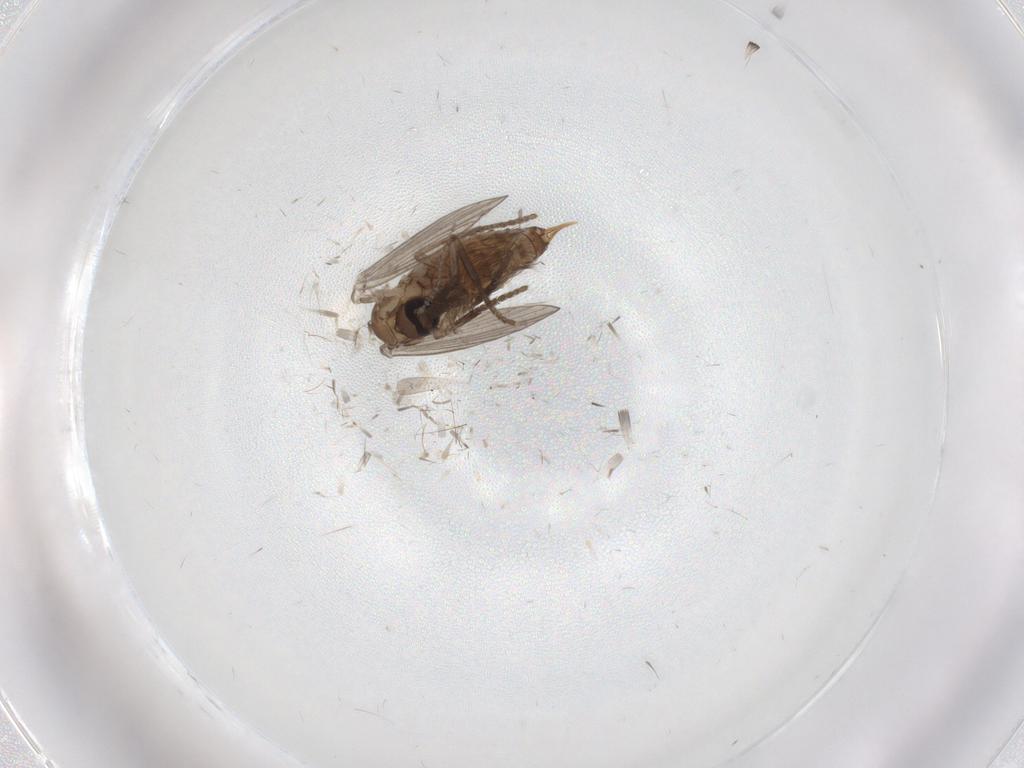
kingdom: Animalia
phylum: Arthropoda
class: Insecta
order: Diptera
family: Psychodidae
